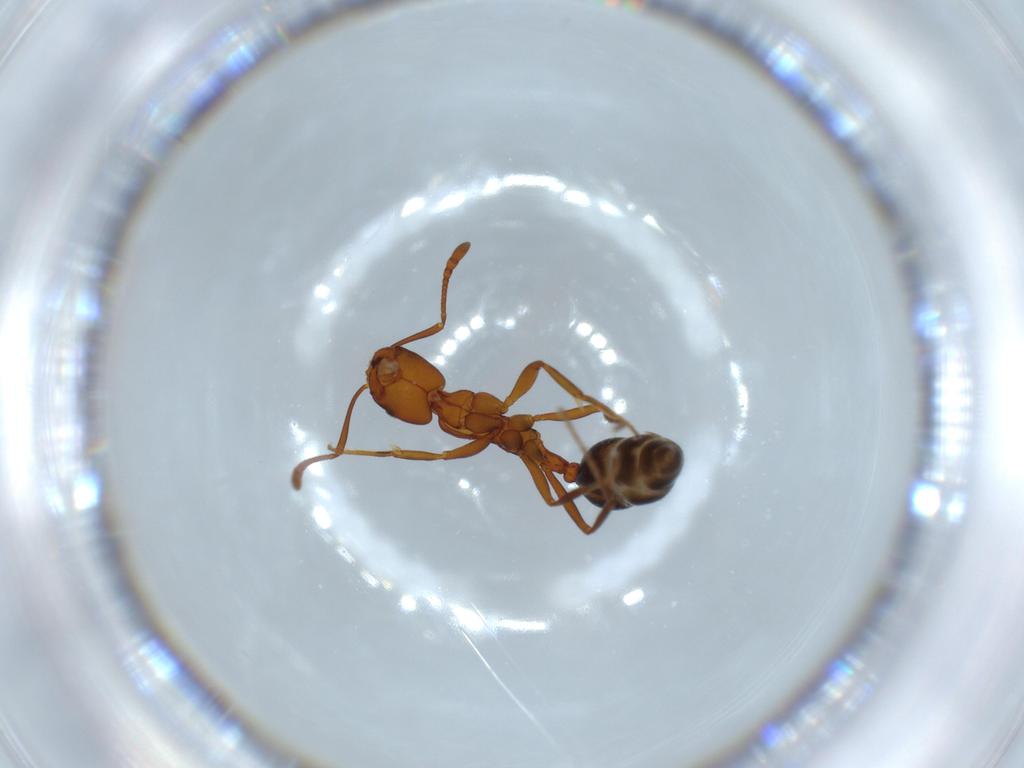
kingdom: Animalia
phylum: Arthropoda
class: Insecta
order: Hymenoptera
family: Formicidae
